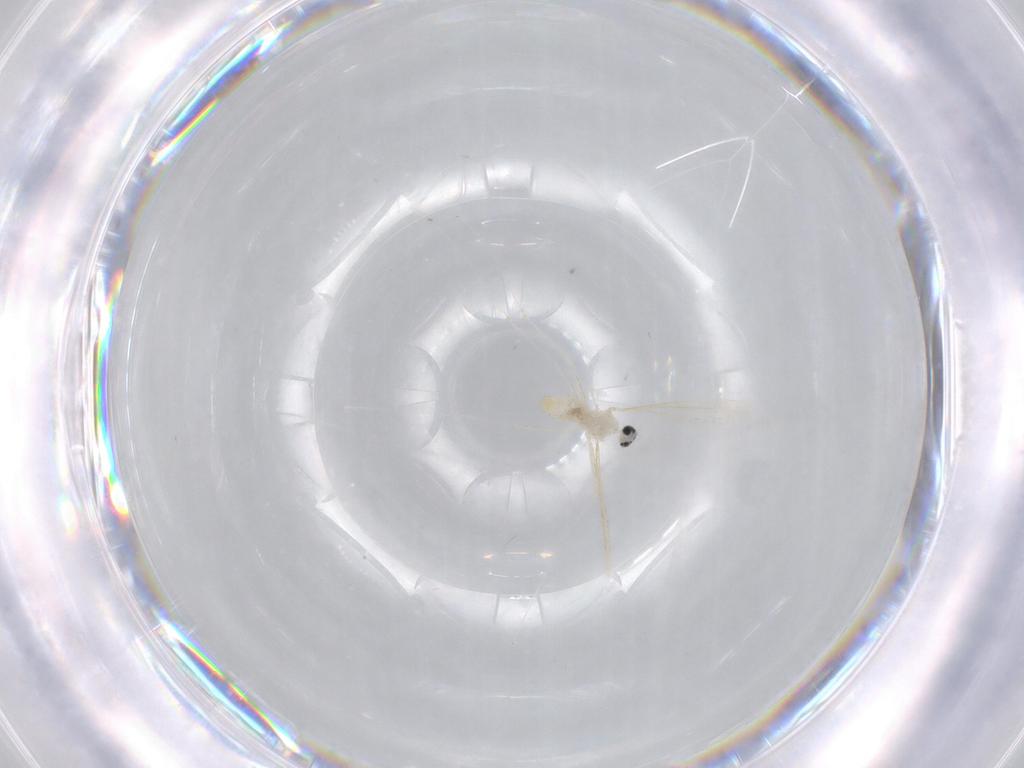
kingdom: Animalia
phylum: Arthropoda
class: Insecta
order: Diptera
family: Cecidomyiidae
